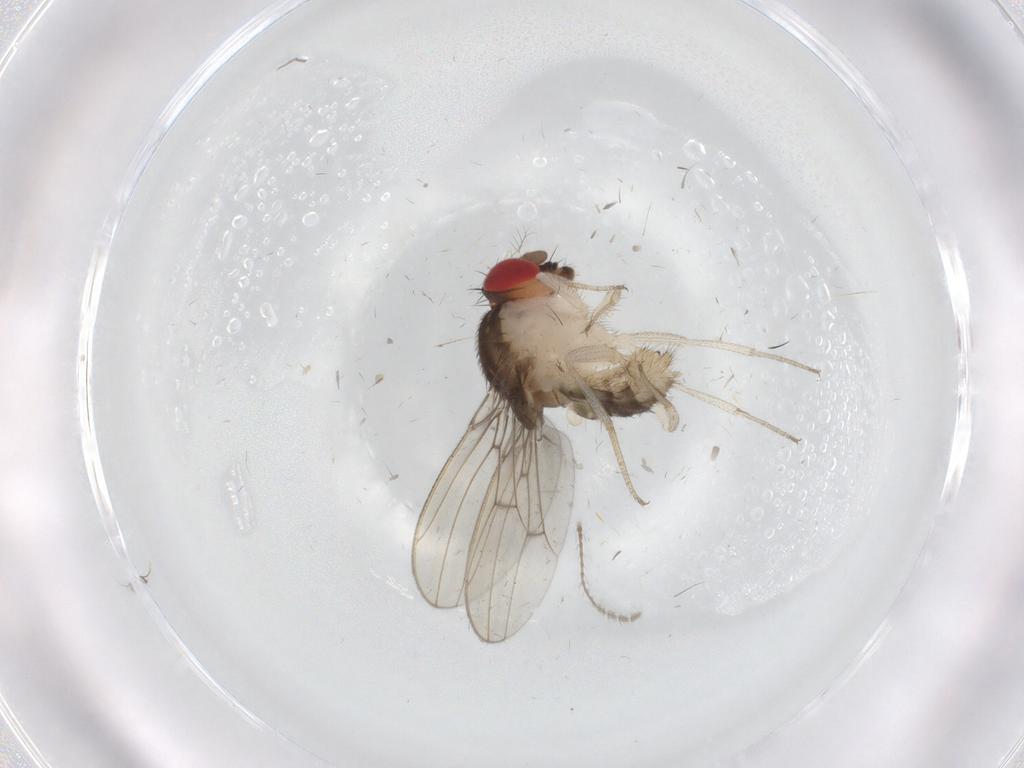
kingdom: Animalia
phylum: Arthropoda
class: Insecta
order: Diptera
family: Drosophilidae
